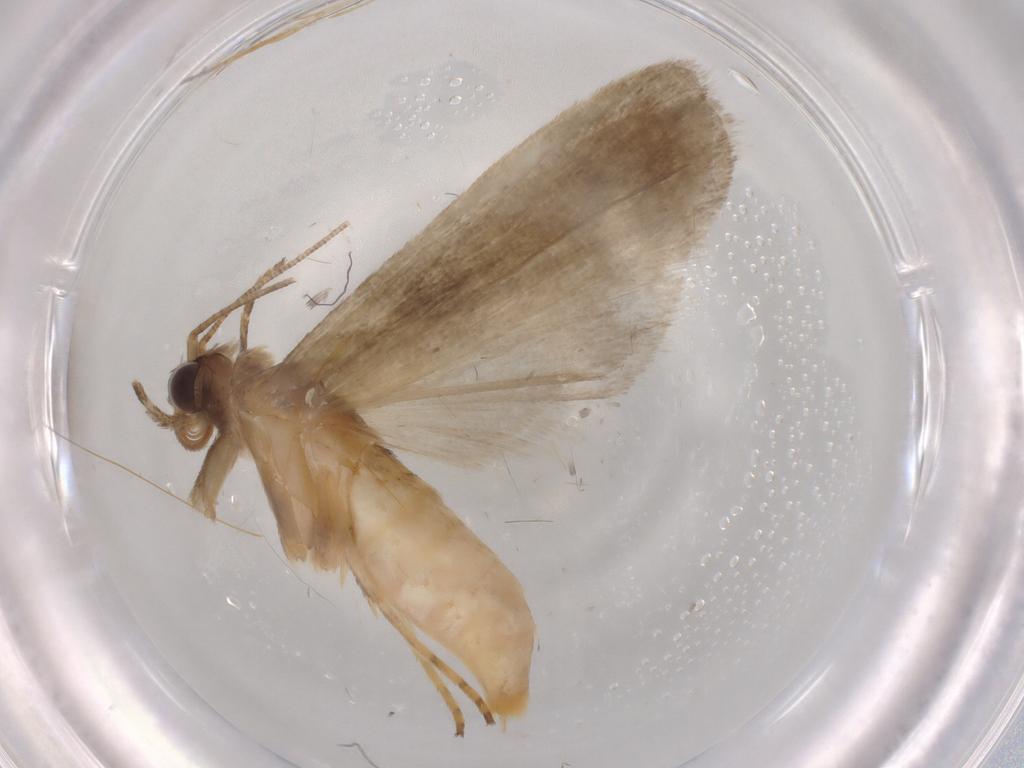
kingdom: Animalia
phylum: Arthropoda
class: Insecta
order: Lepidoptera
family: Noctuidae
